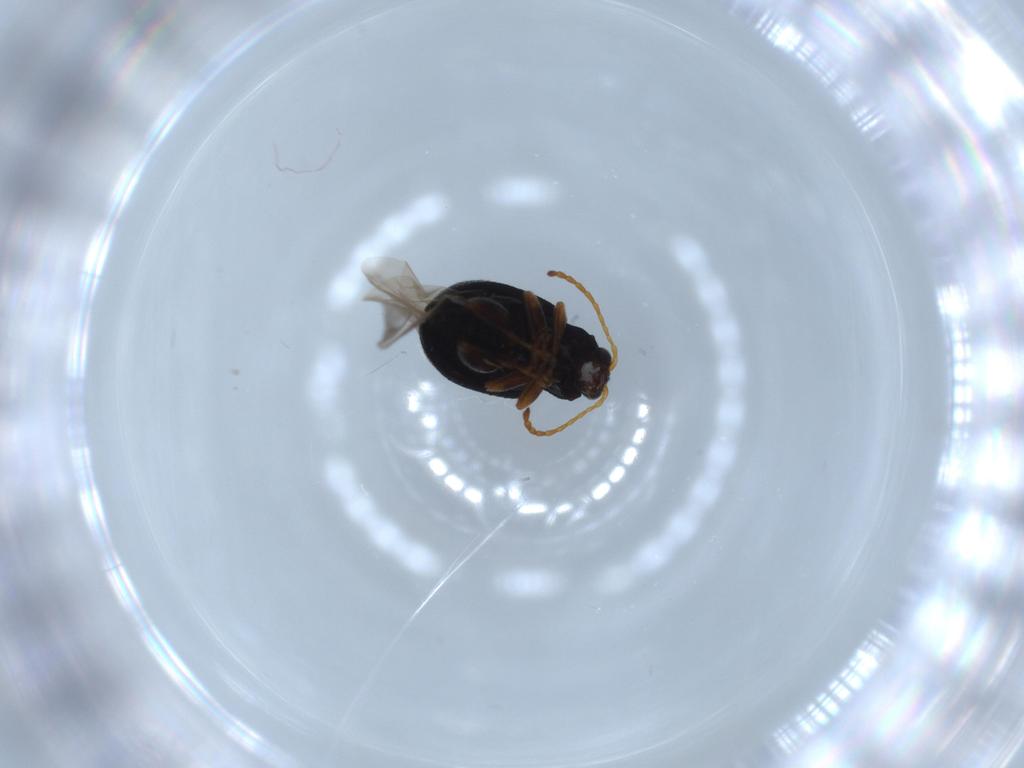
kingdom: Animalia
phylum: Arthropoda
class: Insecta
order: Coleoptera
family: Chrysomelidae
